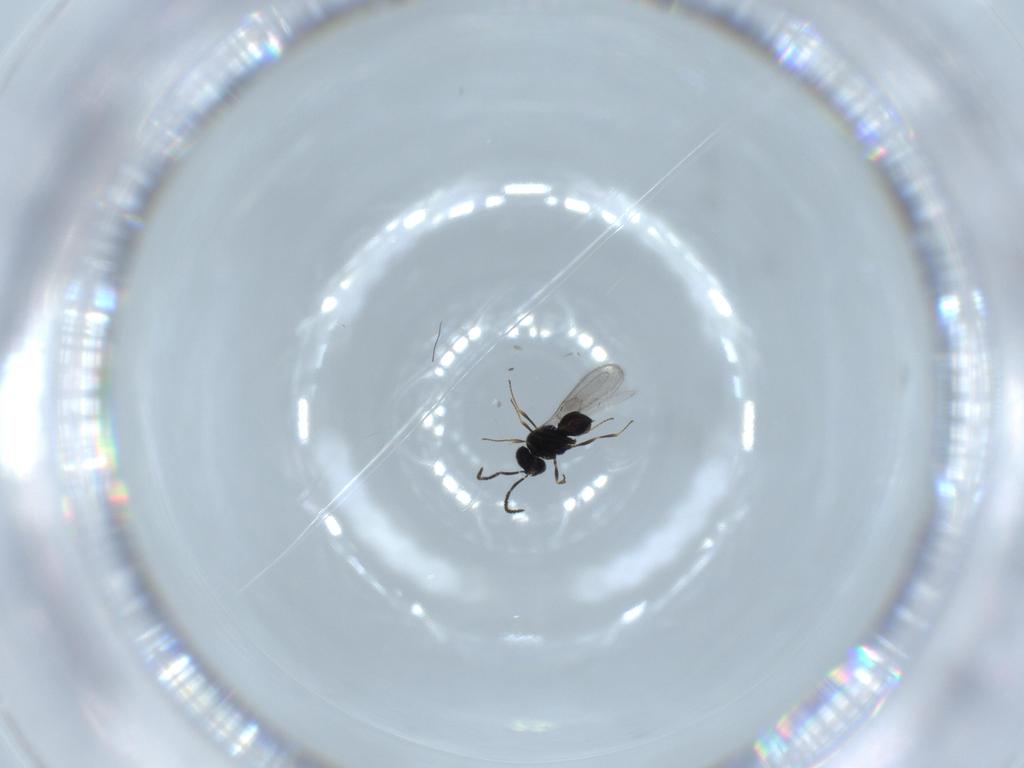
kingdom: Animalia
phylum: Arthropoda
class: Insecta
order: Hymenoptera
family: Scelionidae
